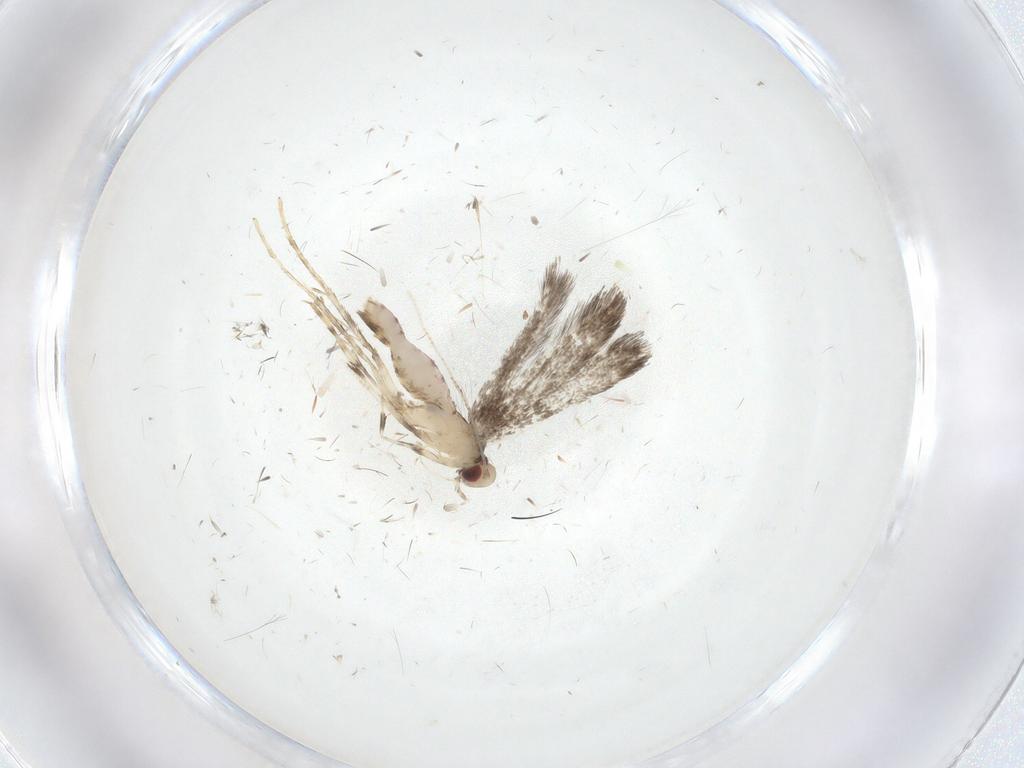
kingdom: Animalia
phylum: Arthropoda
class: Insecta
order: Lepidoptera
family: Gracillariidae
